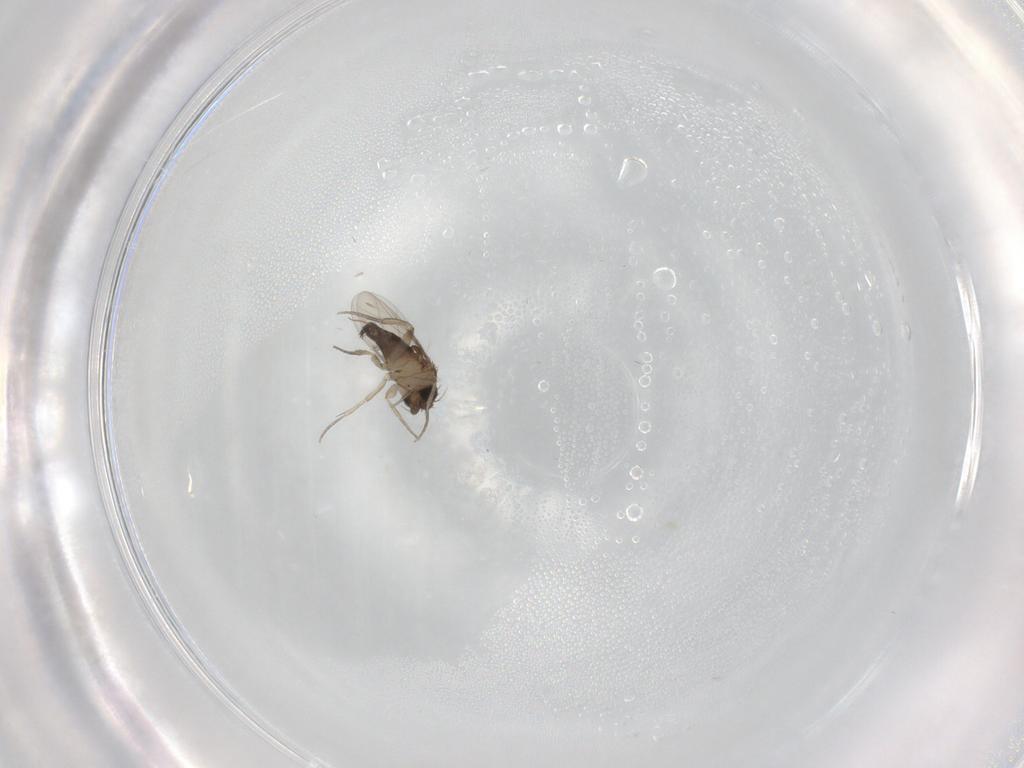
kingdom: Animalia
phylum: Arthropoda
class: Insecta
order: Diptera
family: Phoridae
